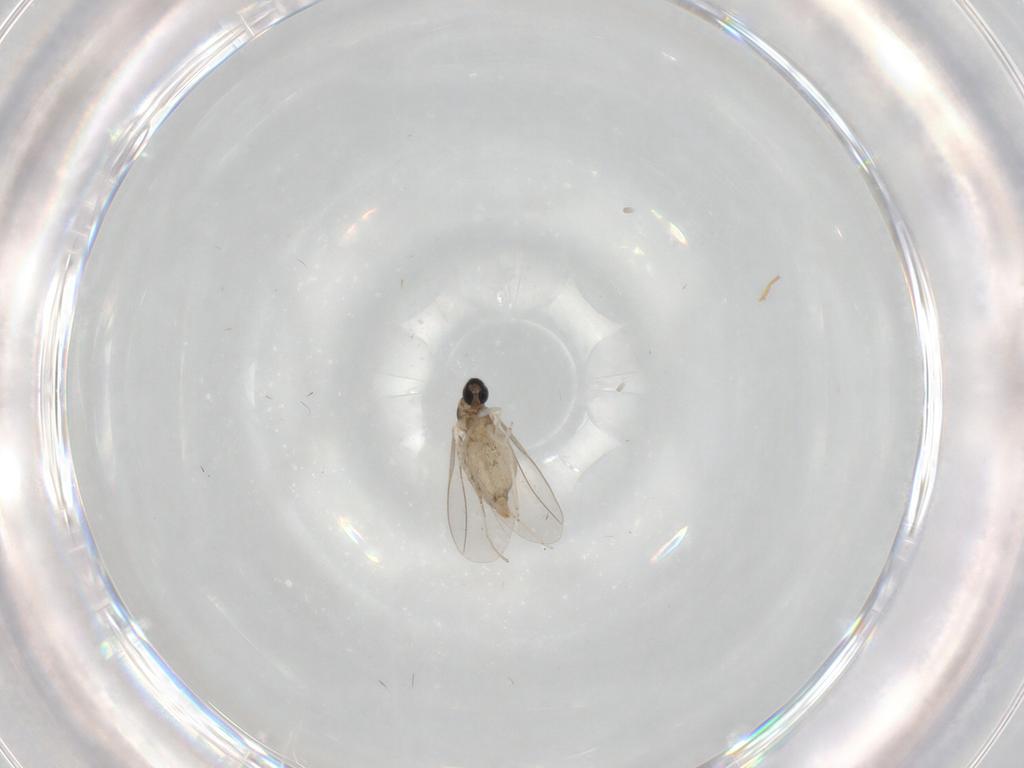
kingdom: Animalia
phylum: Arthropoda
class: Insecta
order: Diptera
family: Cecidomyiidae
